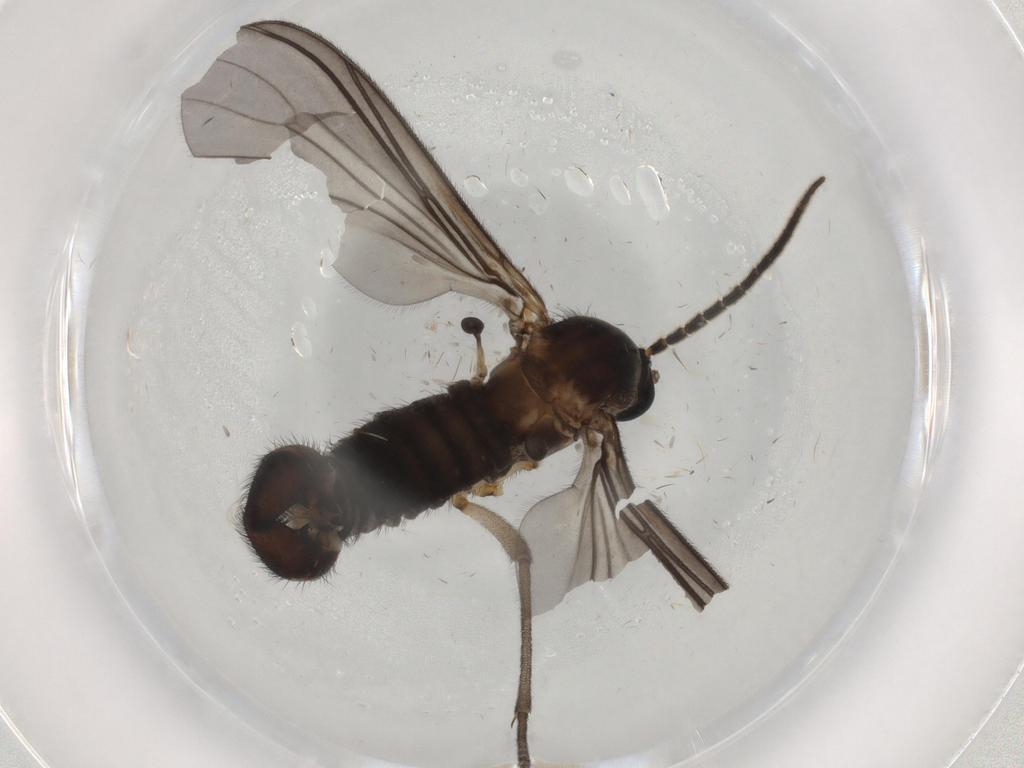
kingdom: Animalia
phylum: Arthropoda
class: Insecta
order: Diptera
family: Sciaridae
